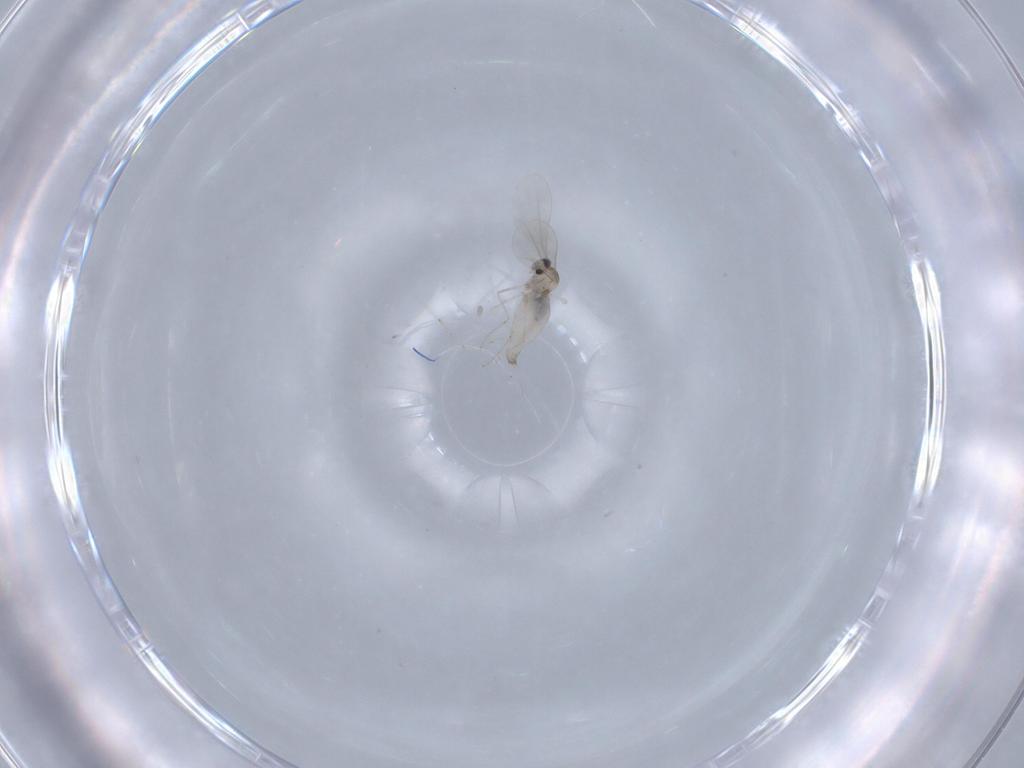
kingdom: Animalia
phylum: Arthropoda
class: Insecta
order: Diptera
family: Cecidomyiidae
